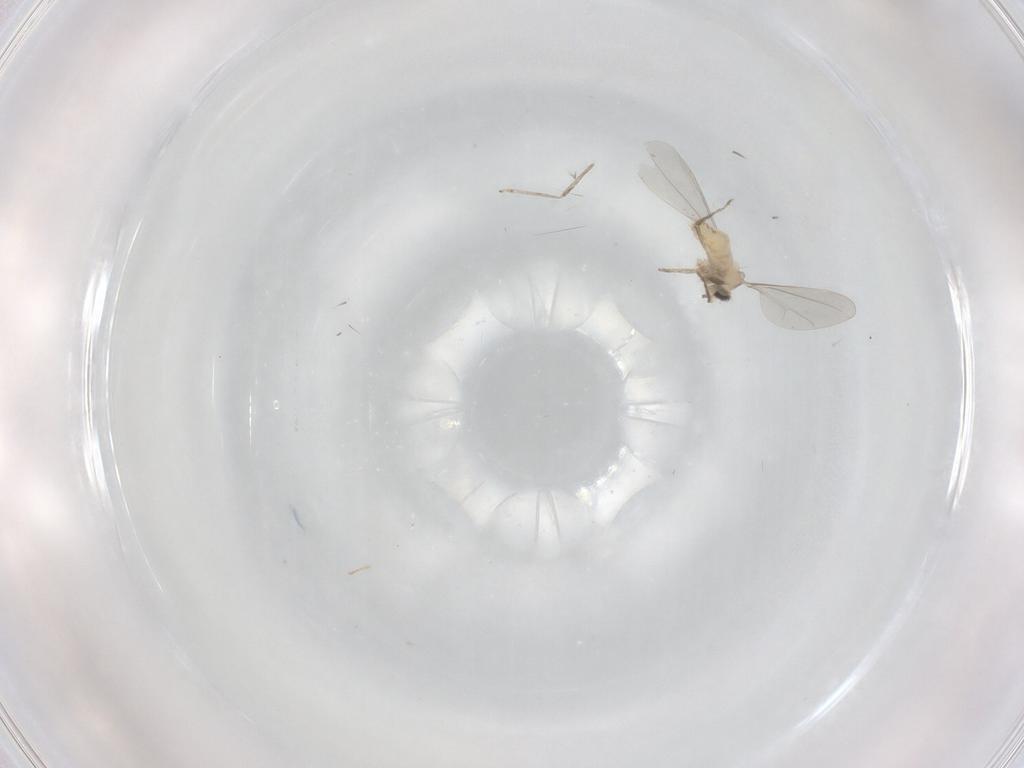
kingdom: Animalia
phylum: Arthropoda
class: Insecta
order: Diptera
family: Cecidomyiidae
